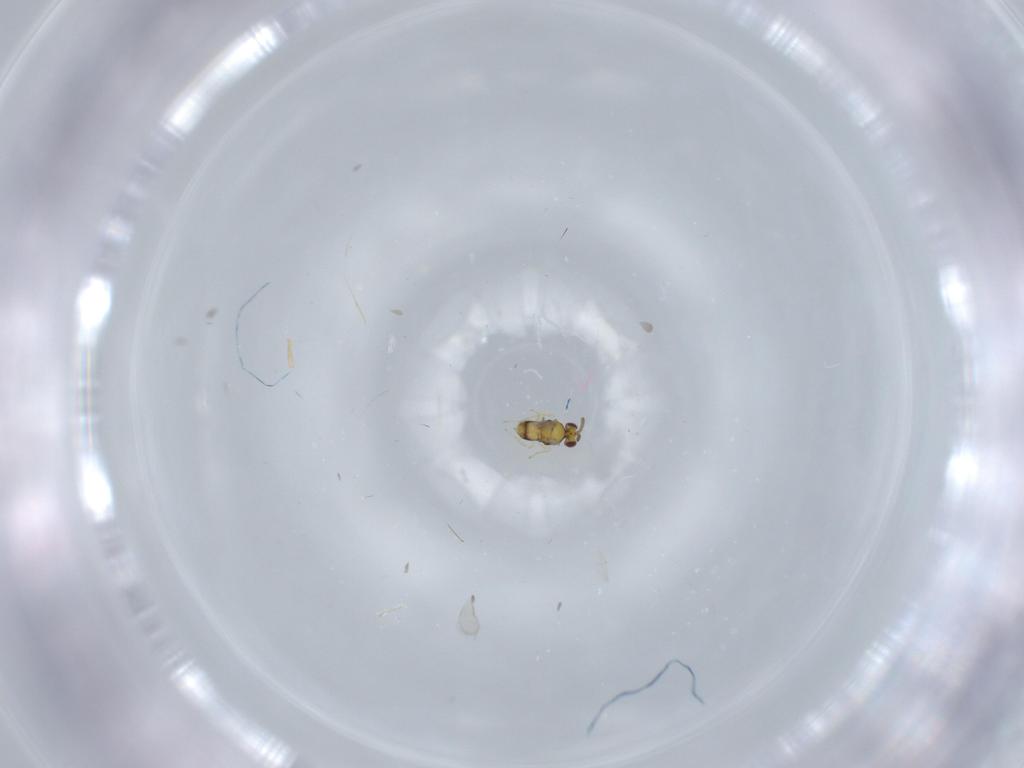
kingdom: Animalia
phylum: Arthropoda
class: Insecta
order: Hymenoptera
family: Aphelinidae
